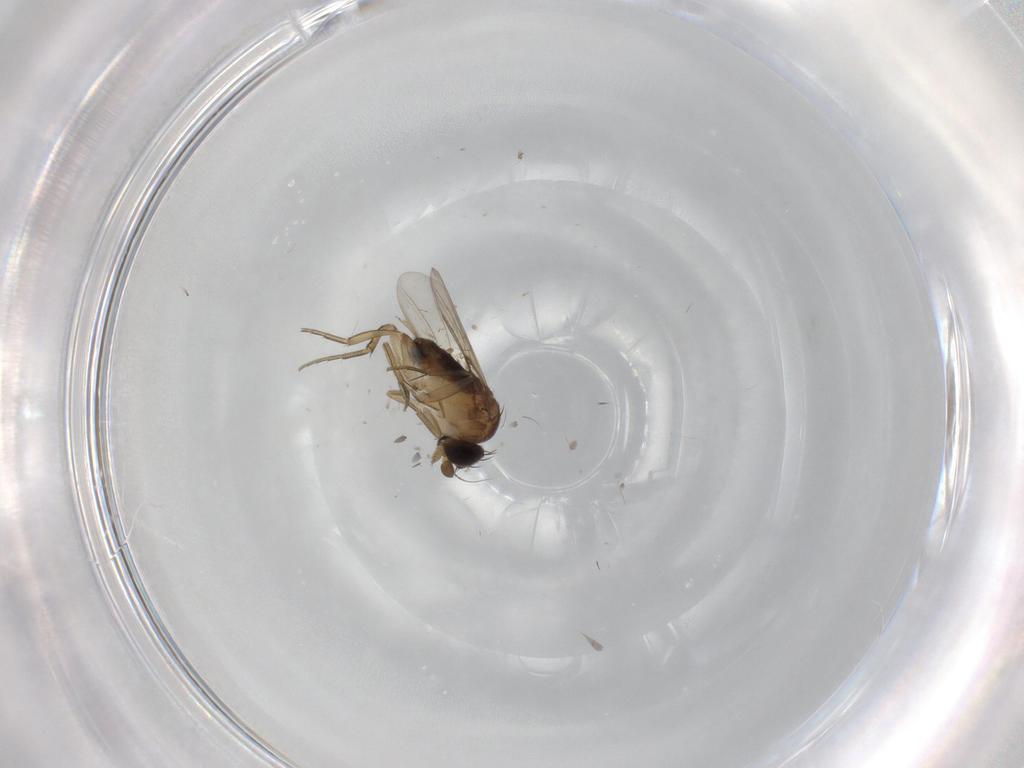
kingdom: Animalia
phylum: Arthropoda
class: Insecta
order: Diptera
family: Phoridae
